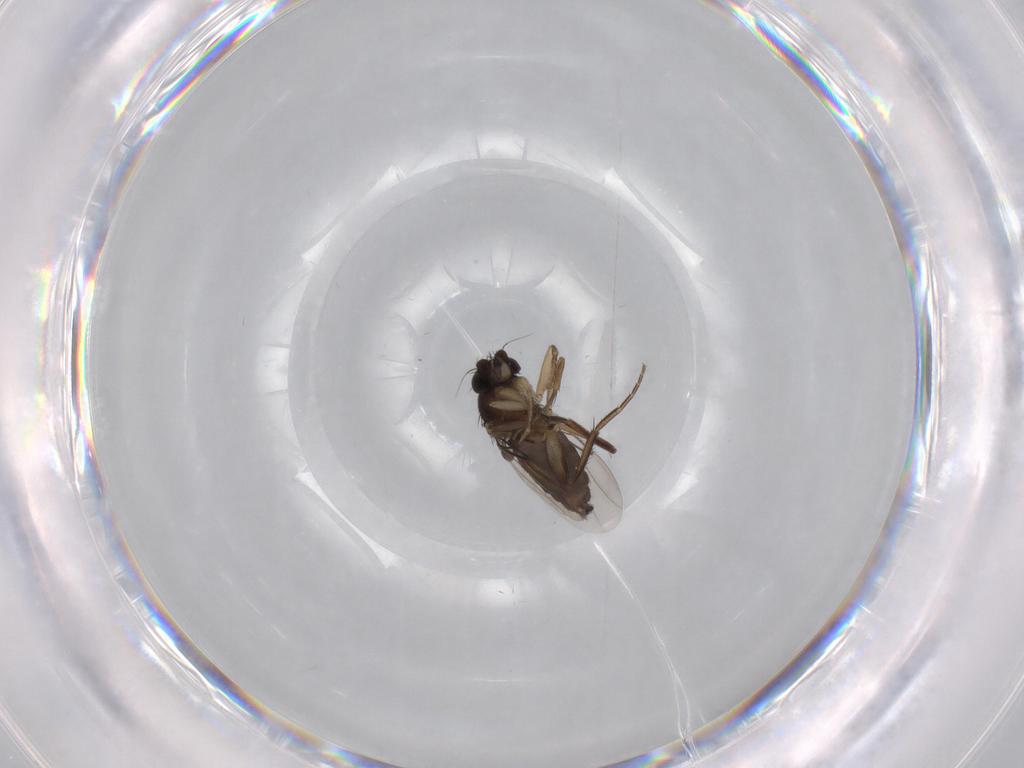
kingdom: Animalia
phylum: Arthropoda
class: Insecta
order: Diptera
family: Phoridae
